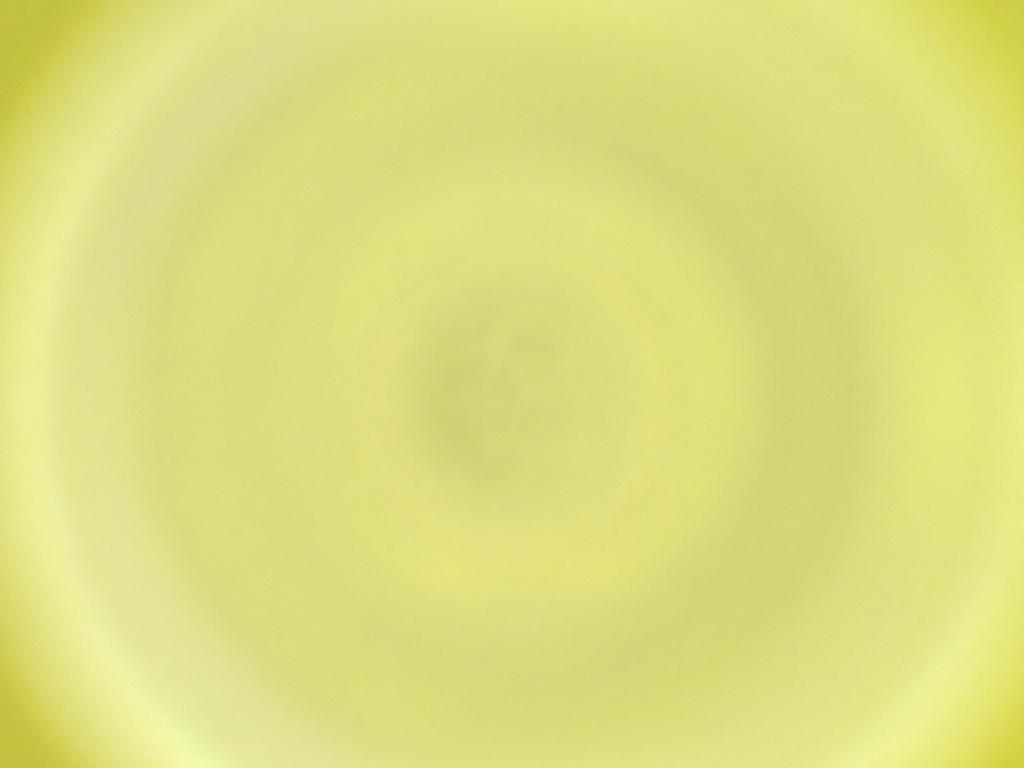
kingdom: Animalia
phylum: Arthropoda
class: Insecta
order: Diptera
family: Cecidomyiidae
